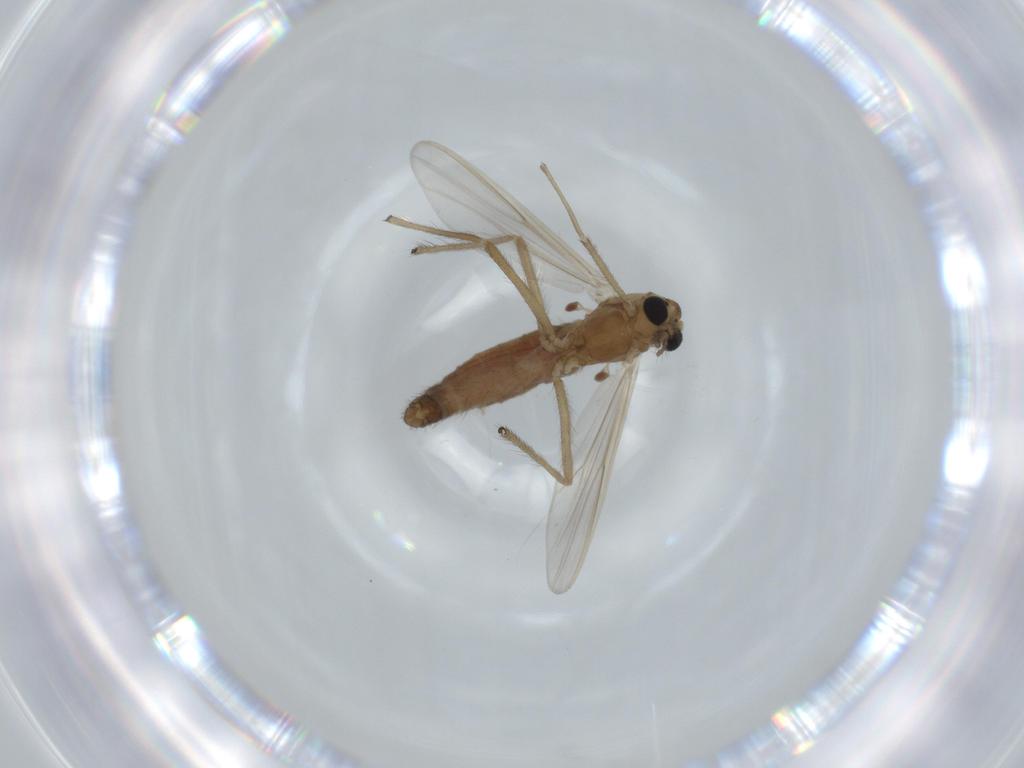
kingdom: Animalia
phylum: Arthropoda
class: Insecta
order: Diptera
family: Chironomidae
